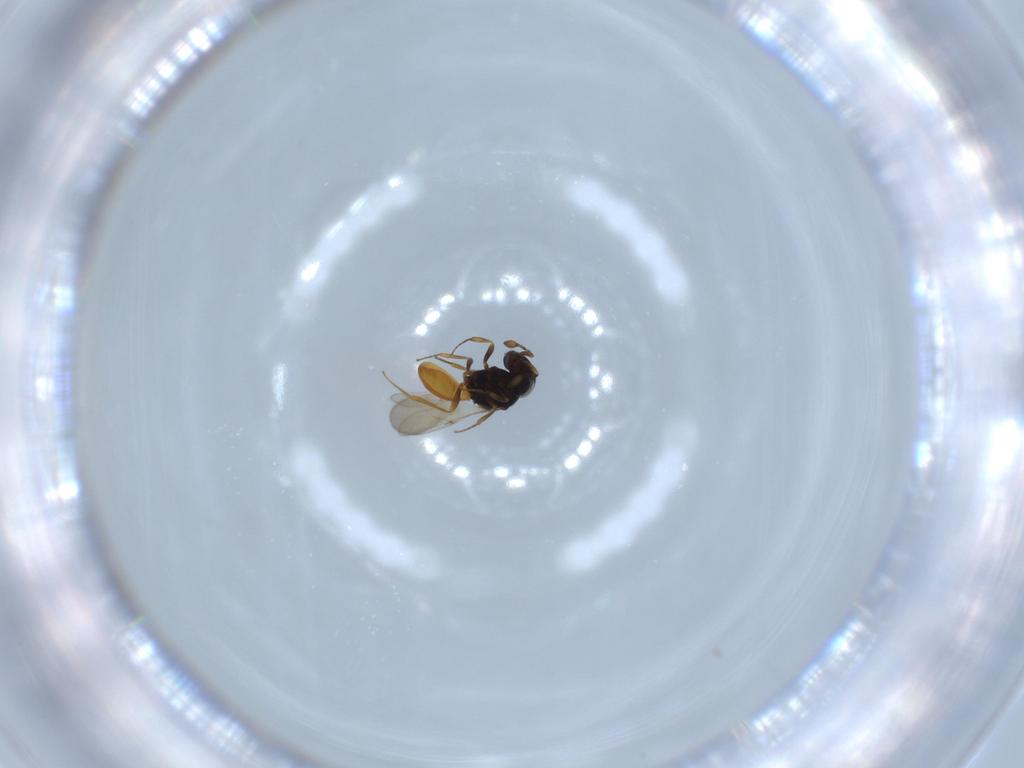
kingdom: Animalia
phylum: Arthropoda
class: Insecta
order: Hymenoptera
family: Scelionidae
